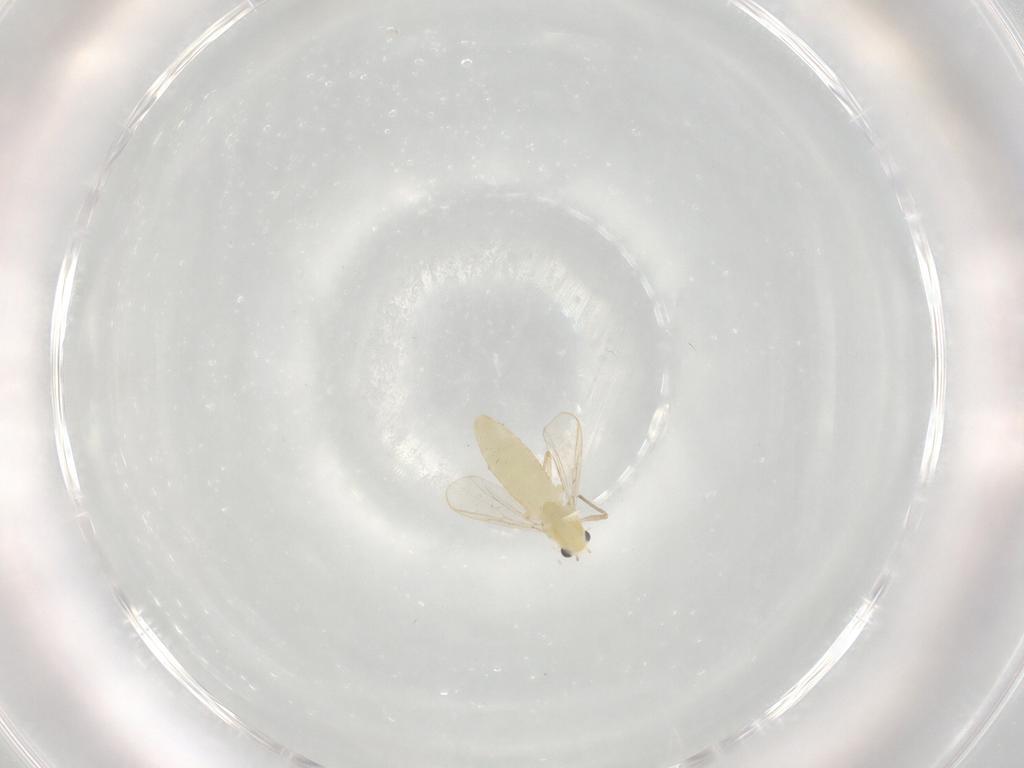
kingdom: Animalia
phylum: Arthropoda
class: Insecta
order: Diptera
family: Chironomidae
